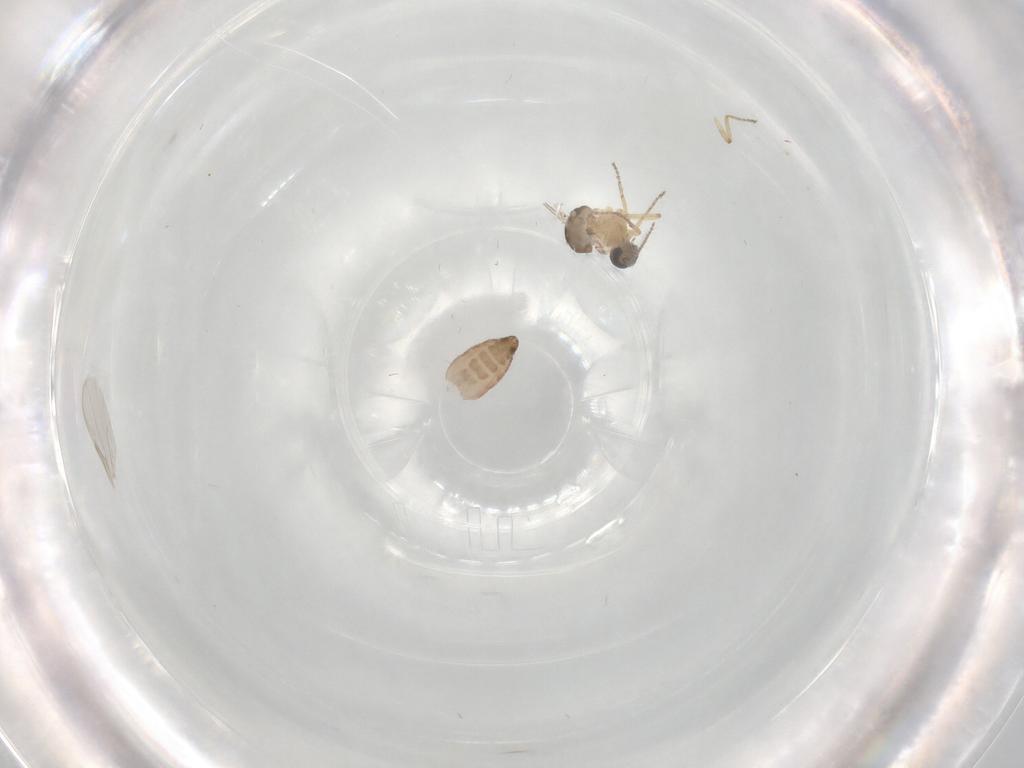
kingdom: Animalia
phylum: Arthropoda
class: Insecta
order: Diptera
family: Ceratopogonidae
